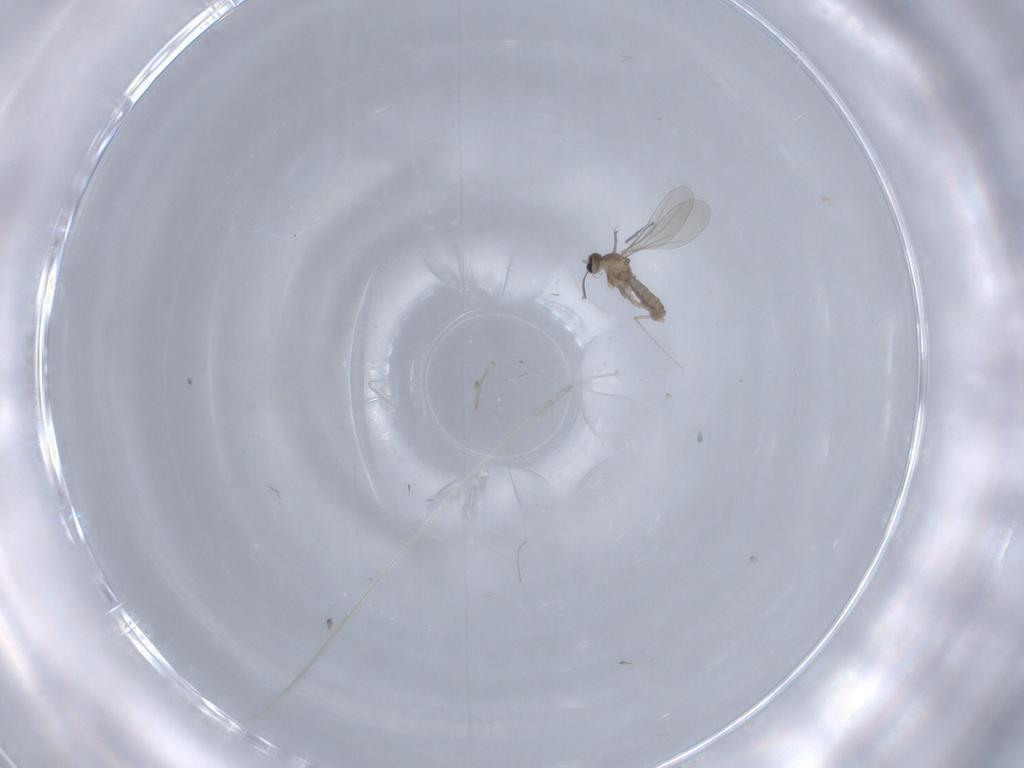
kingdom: Animalia
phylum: Arthropoda
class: Insecta
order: Diptera
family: Cecidomyiidae
